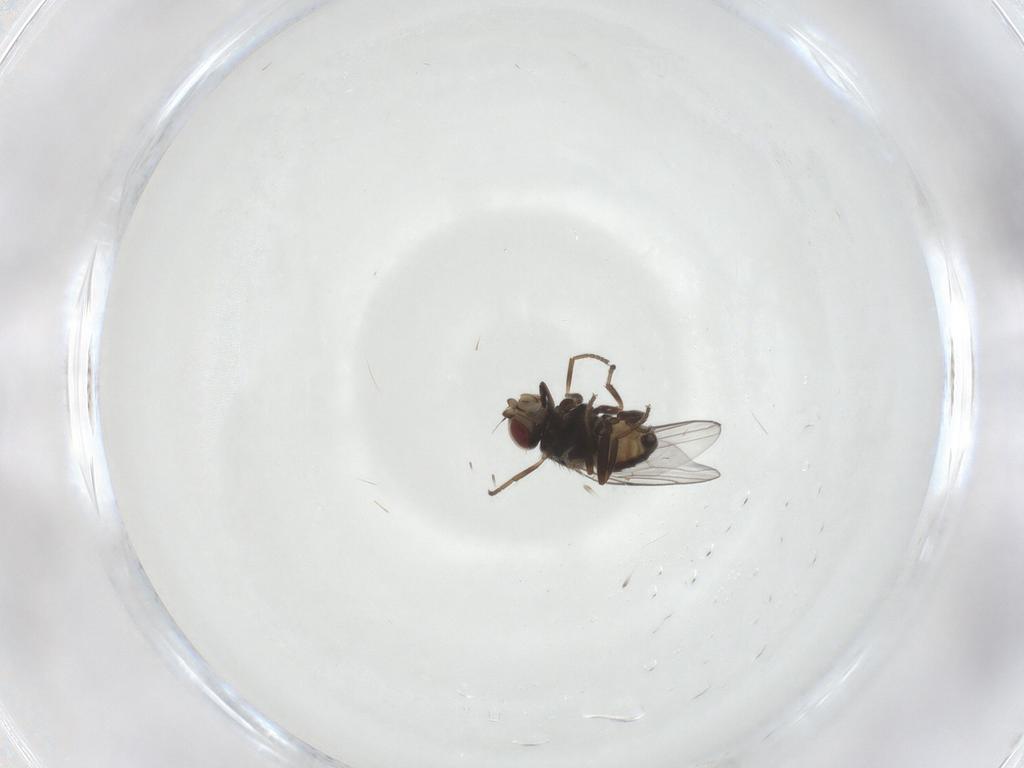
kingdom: Animalia
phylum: Arthropoda
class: Insecta
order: Diptera
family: Chloropidae
